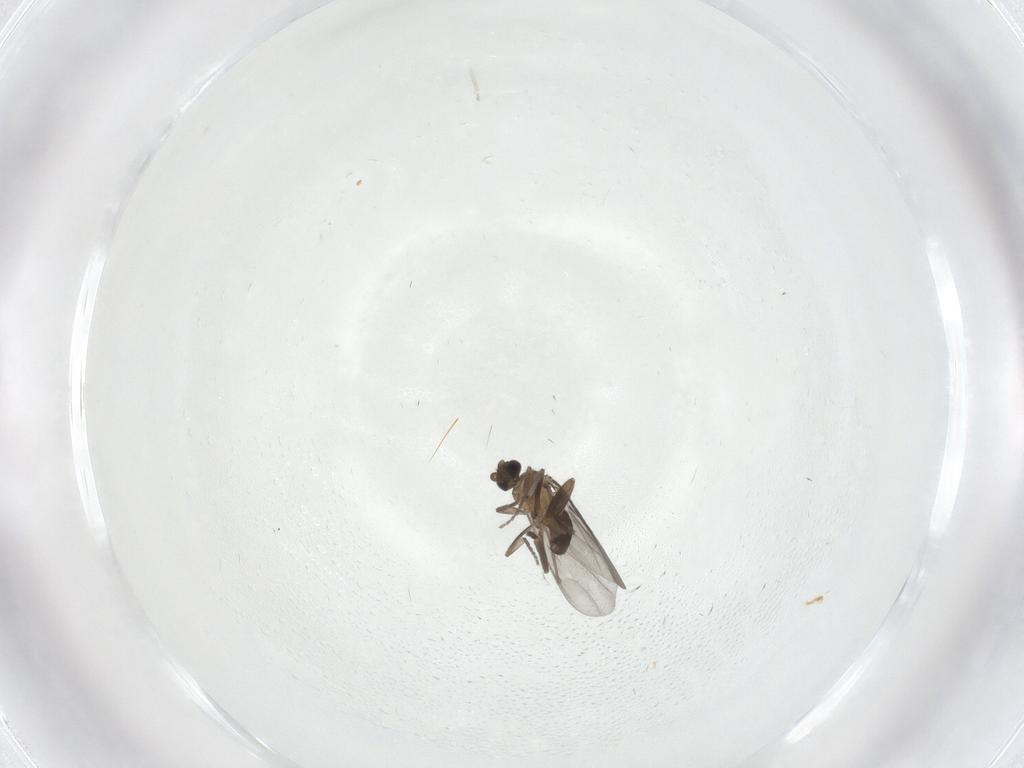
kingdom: Animalia
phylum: Arthropoda
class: Insecta
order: Diptera
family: Phoridae
